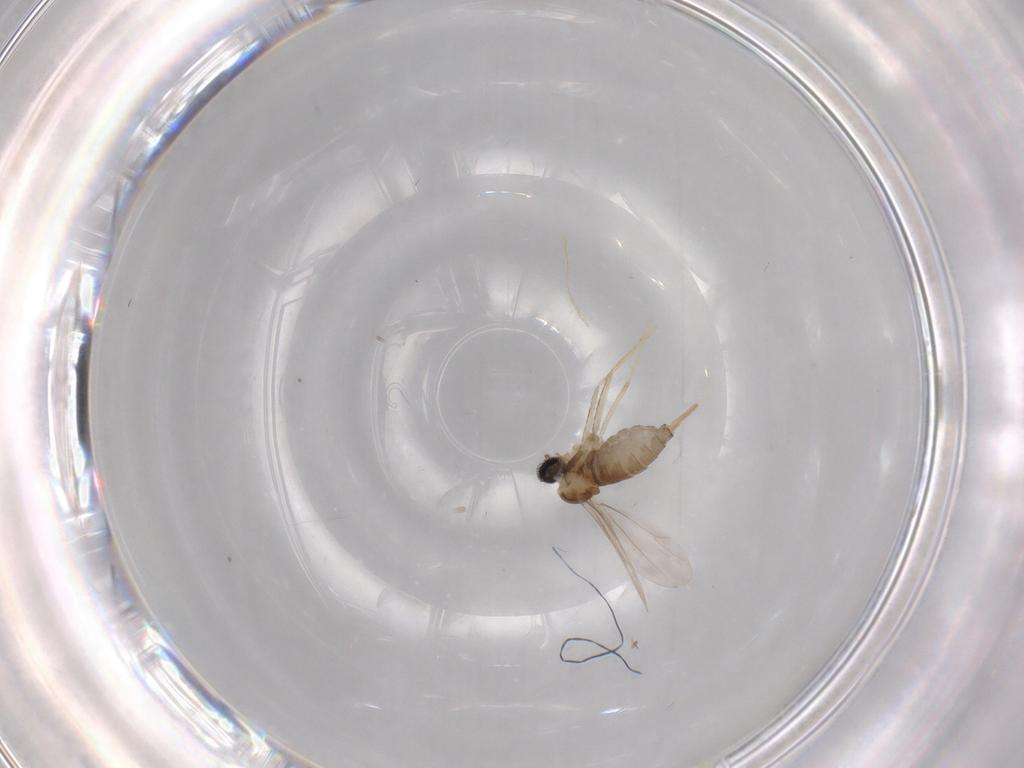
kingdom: Animalia
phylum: Arthropoda
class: Insecta
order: Diptera
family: Cecidomyiidae
